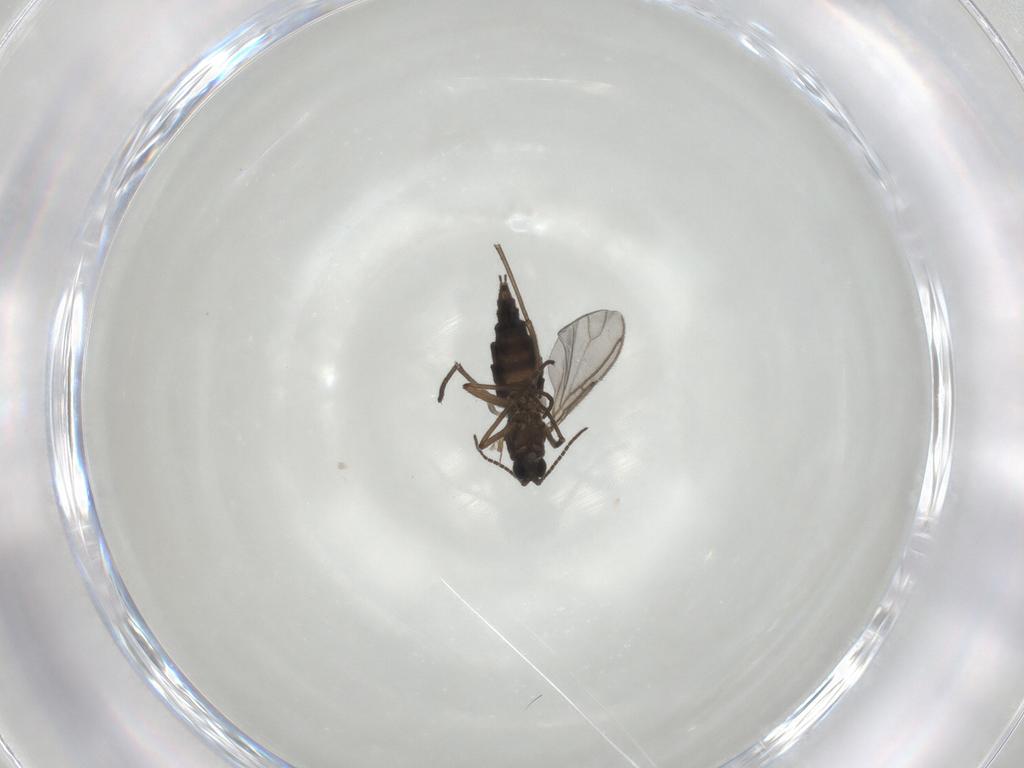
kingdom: Animalia
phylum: Arthropoda
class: Insecta
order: Diptera
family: Sciaridae
